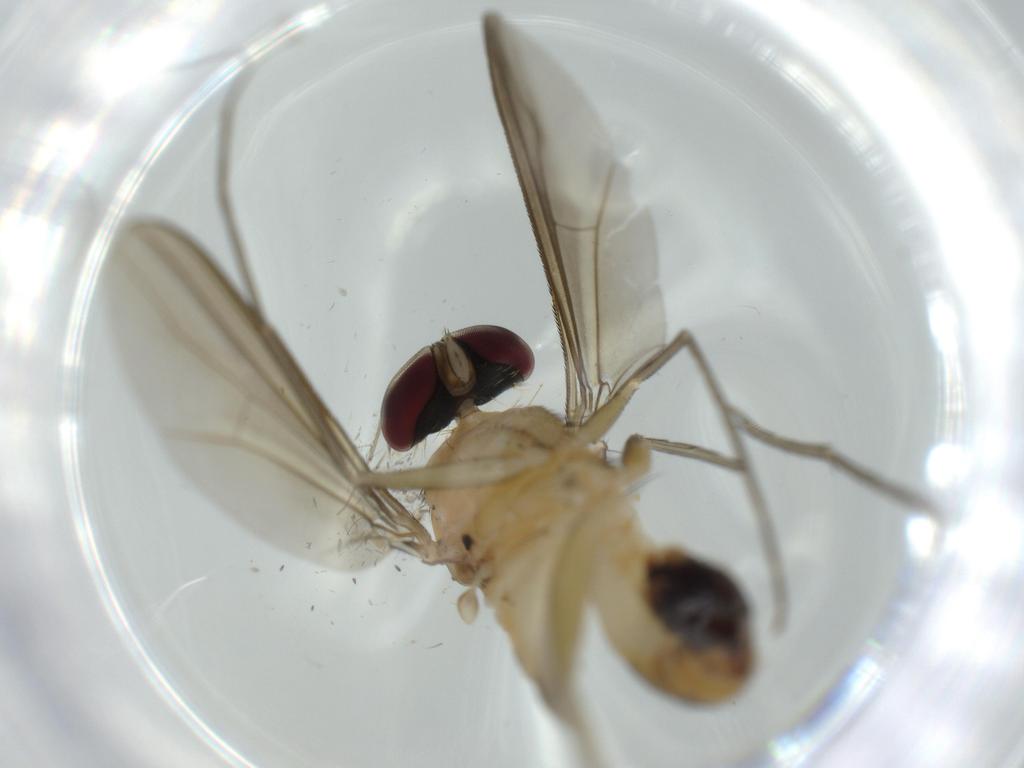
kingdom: Animalia
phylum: Arthropoda
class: Insecta
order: Diptera
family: Dolichopodidae
